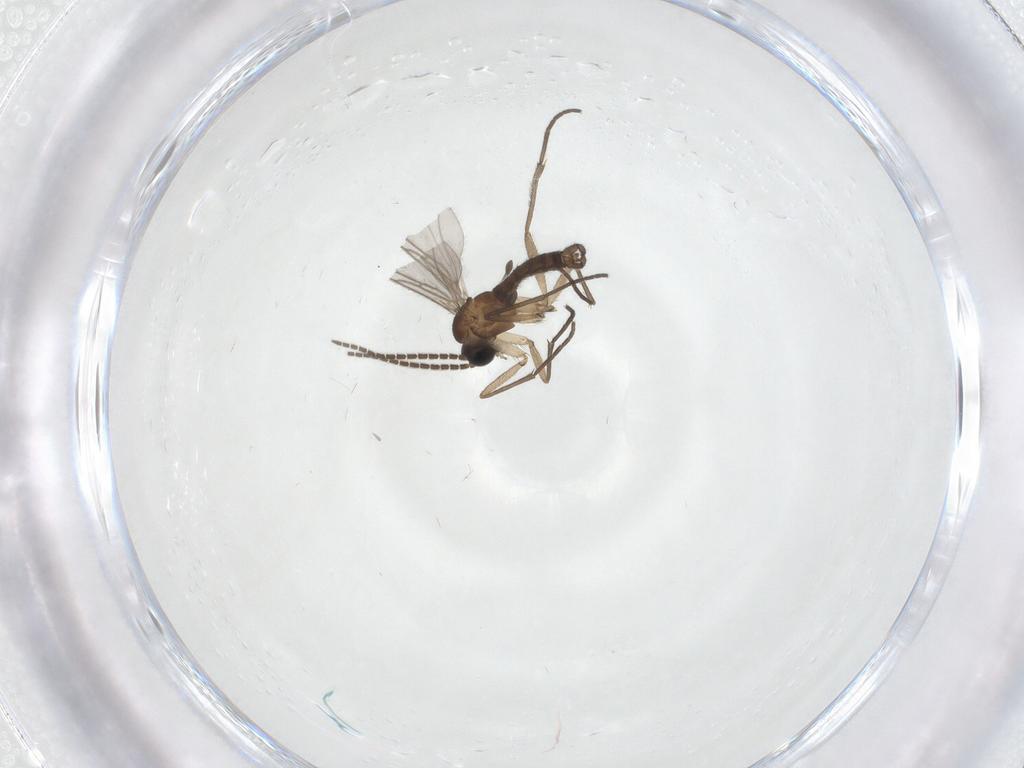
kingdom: Animalia
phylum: Arthropoda
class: Insecta
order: Diptera
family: Sciaridae
